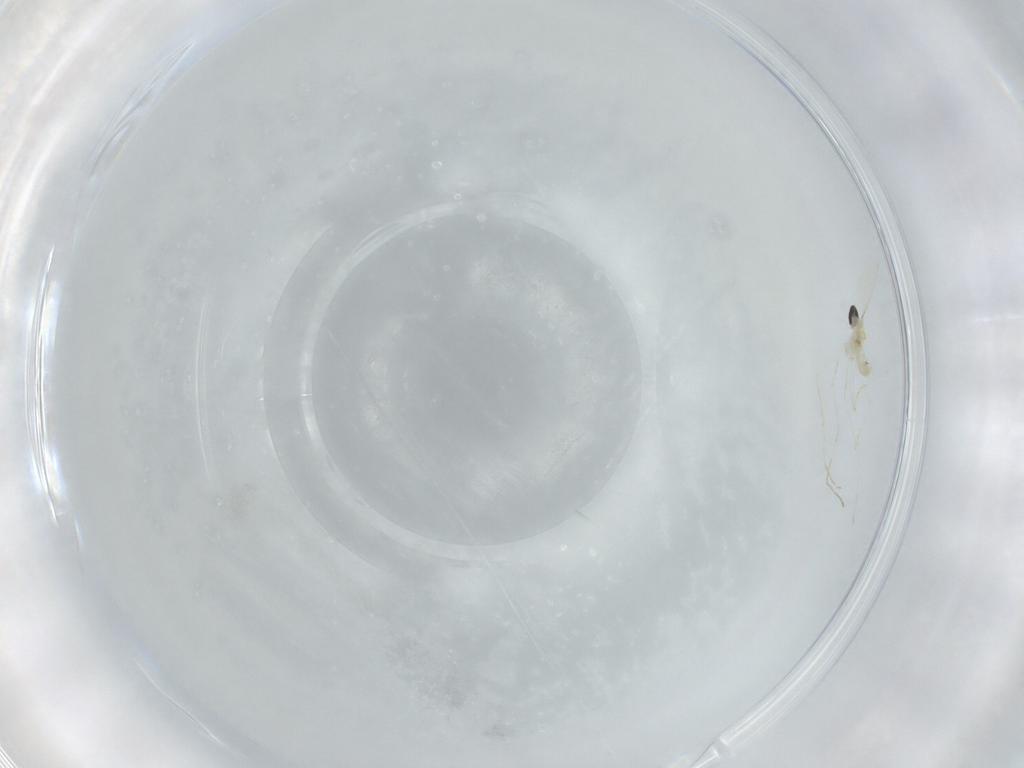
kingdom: Animalia
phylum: Arthropoda
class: Insecta
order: Diptera
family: Cecidomyiidae
